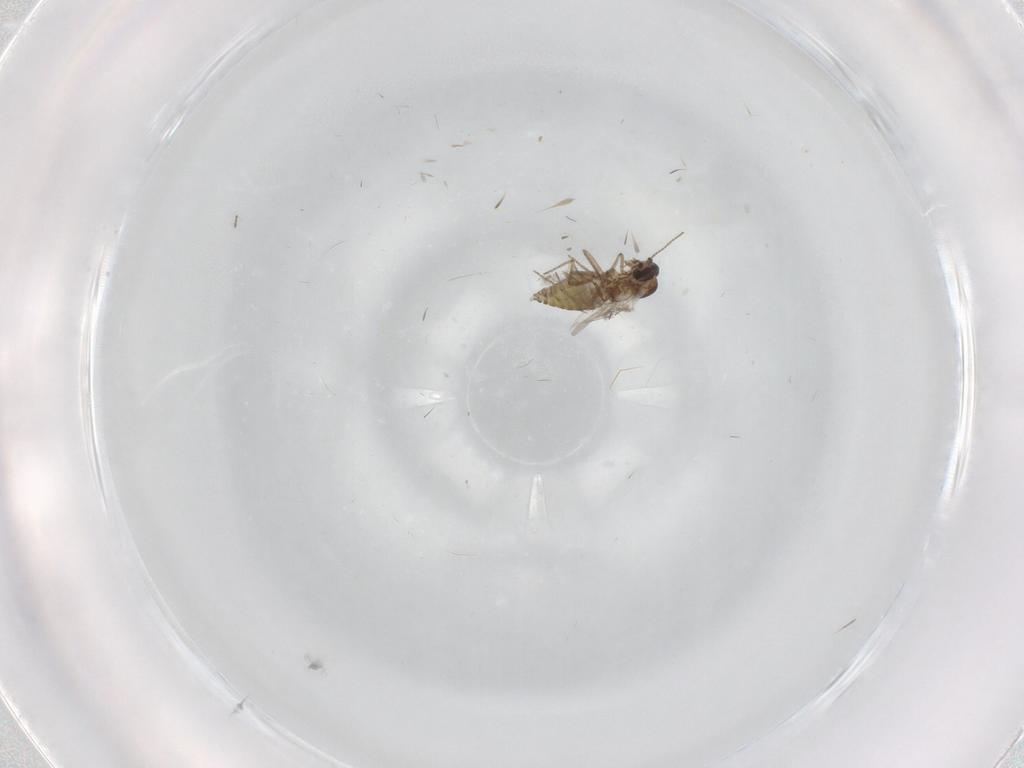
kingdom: Animalia
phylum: Arthropoda
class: Insecta
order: Diptera
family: Ceratopogonidae
